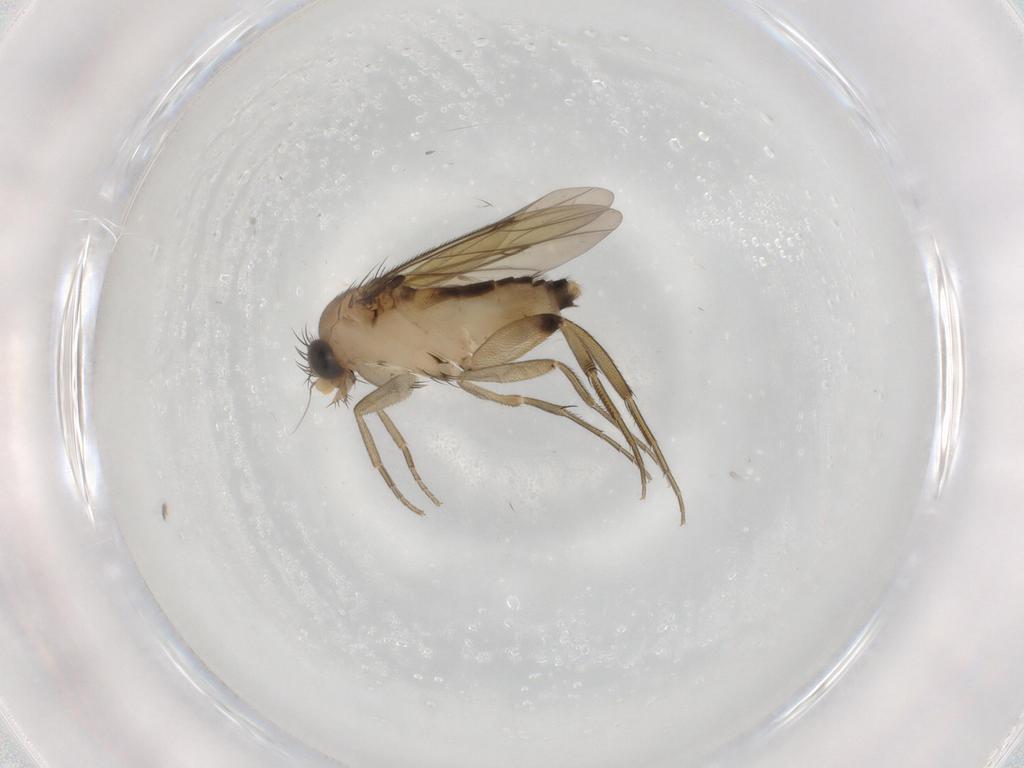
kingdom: Animalia
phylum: Arthropoda
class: Insecta
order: Diptera
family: Phoridae
